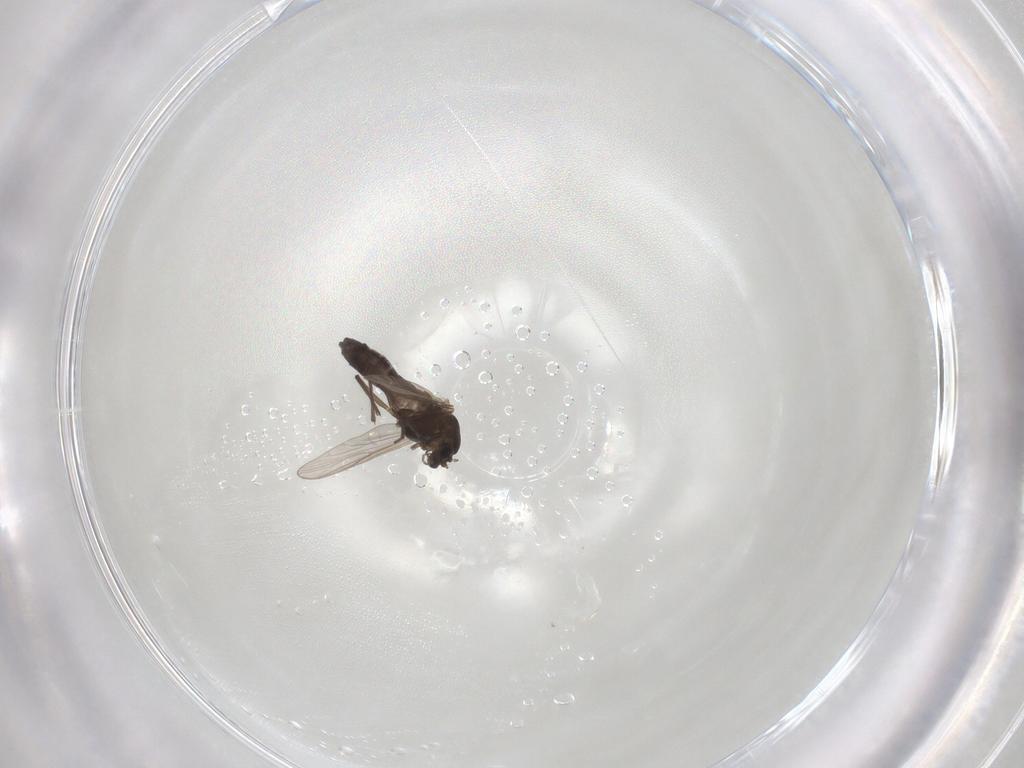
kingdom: Animalia
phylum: Arthropoda
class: Insecta
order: Diptera
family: Chironomidae
